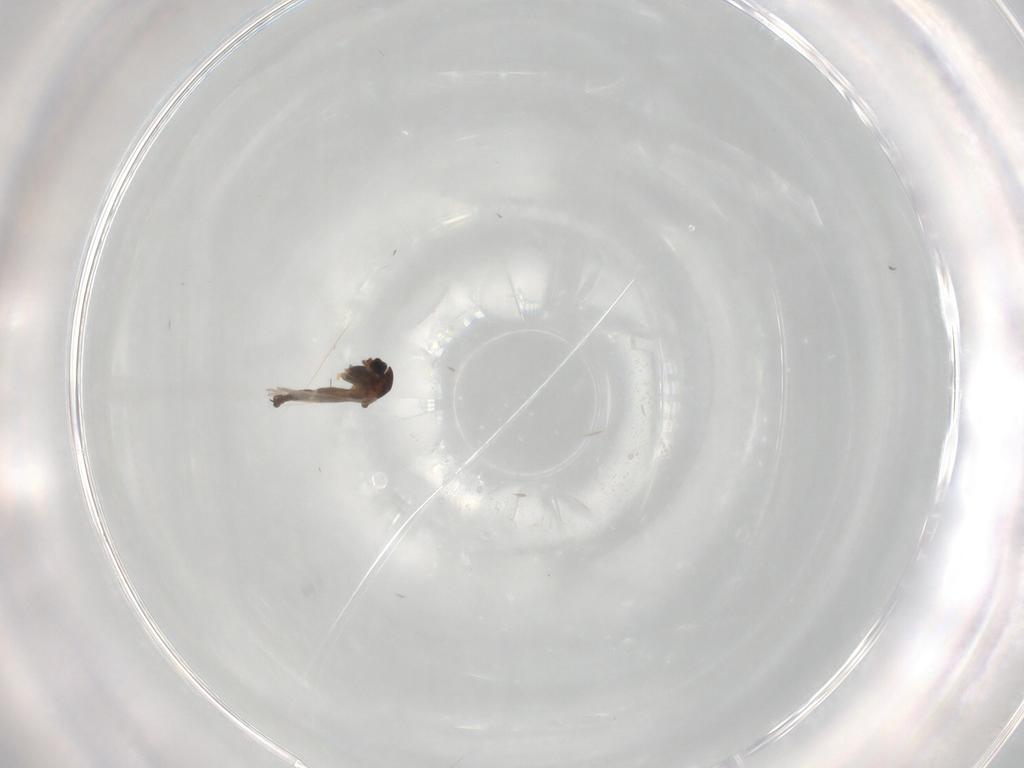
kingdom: Animalia
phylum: Arthropoda
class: Insecta
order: Diptera
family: Chironomidae
